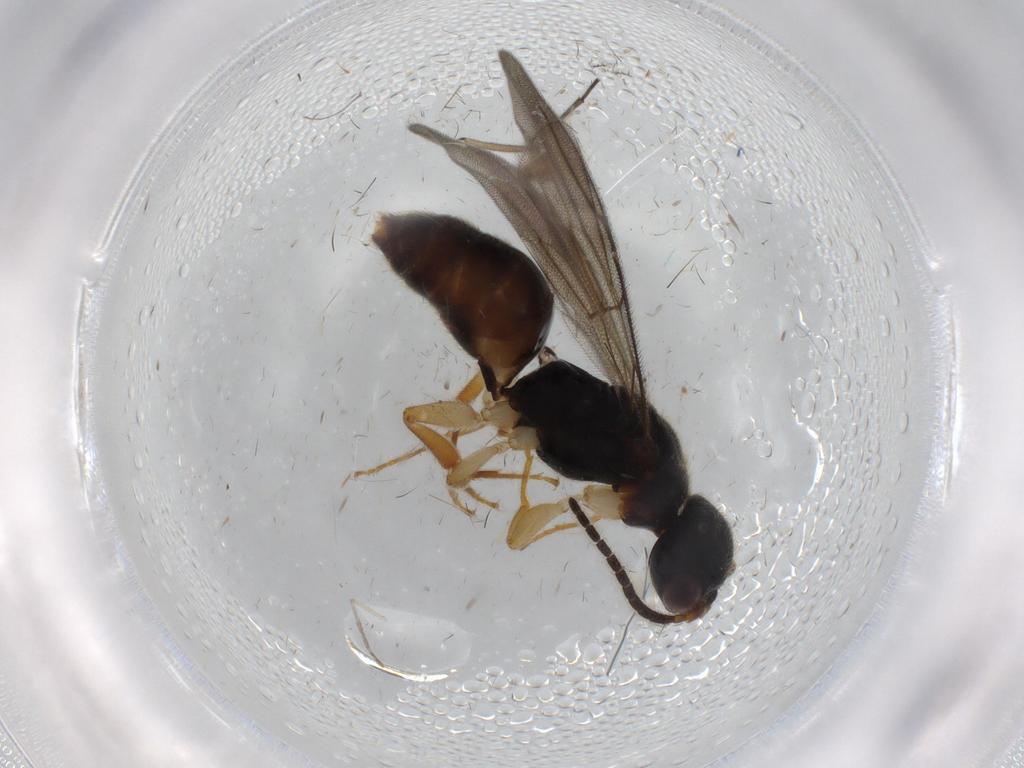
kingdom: Animalia
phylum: Arthropoda
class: Insecta
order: Hymenoptera
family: Bethylidae
